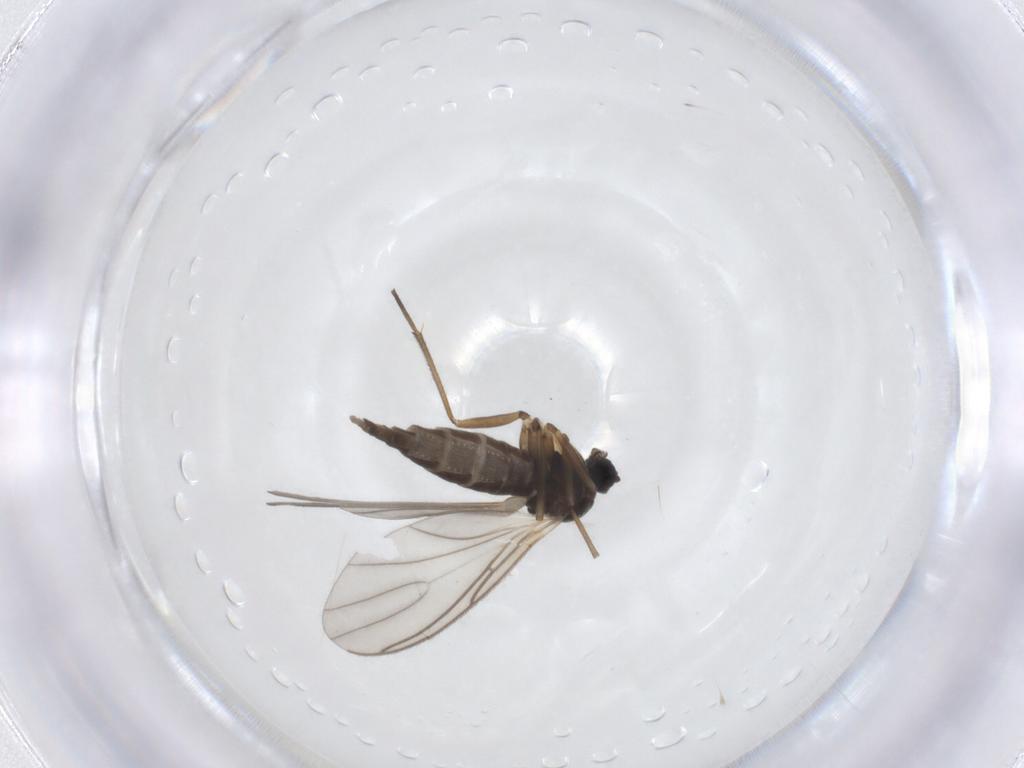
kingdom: Animalia
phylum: Arthropoda
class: Insecta
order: Diptera
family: Sciaridae
